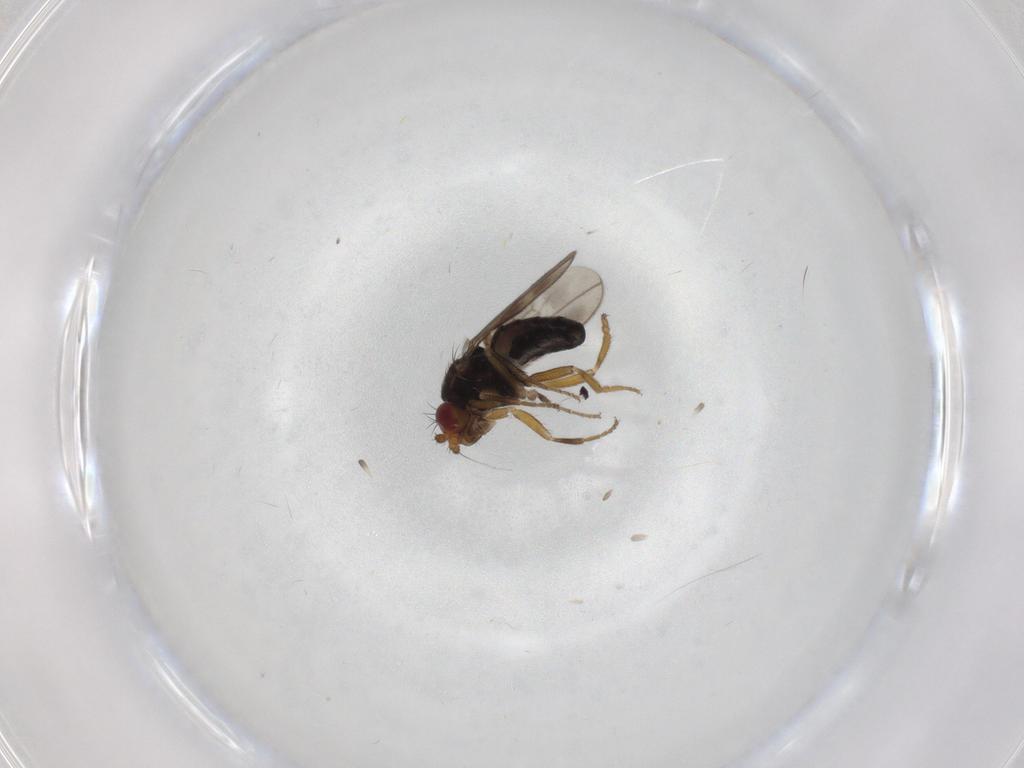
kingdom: Animalia
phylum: Arthropoda
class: Insecta
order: Diptera
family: Sphaeroceridae
